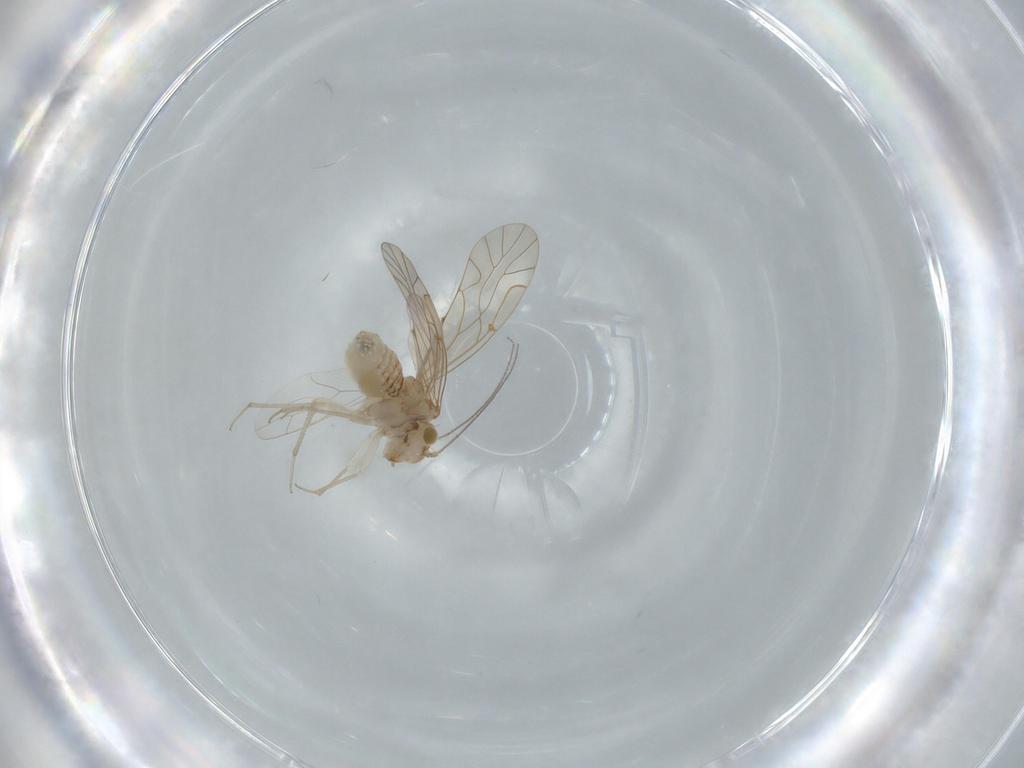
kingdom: Animalia
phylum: Arthropoda
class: Insecta
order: Psocodea
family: Lachesillidae
